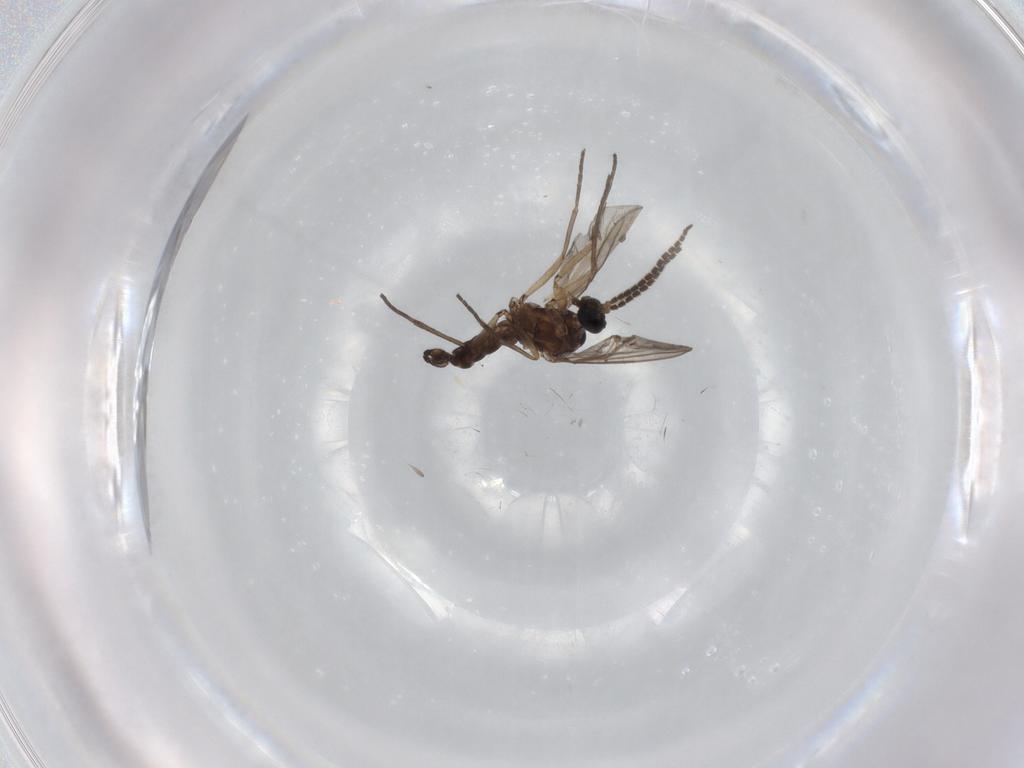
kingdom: Animalia
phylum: Arthropoda
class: Insecta
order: Diptera
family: Sciaridae
